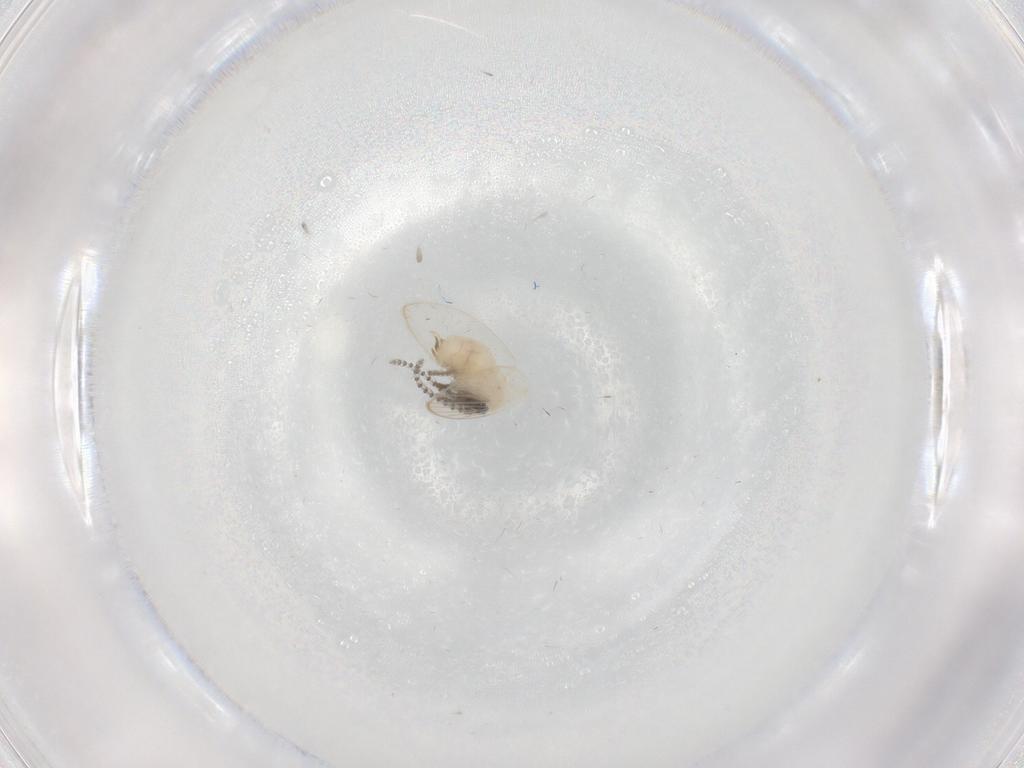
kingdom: Animalia
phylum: Arthropoda
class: Insecta
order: Diptera
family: Psychodidae
